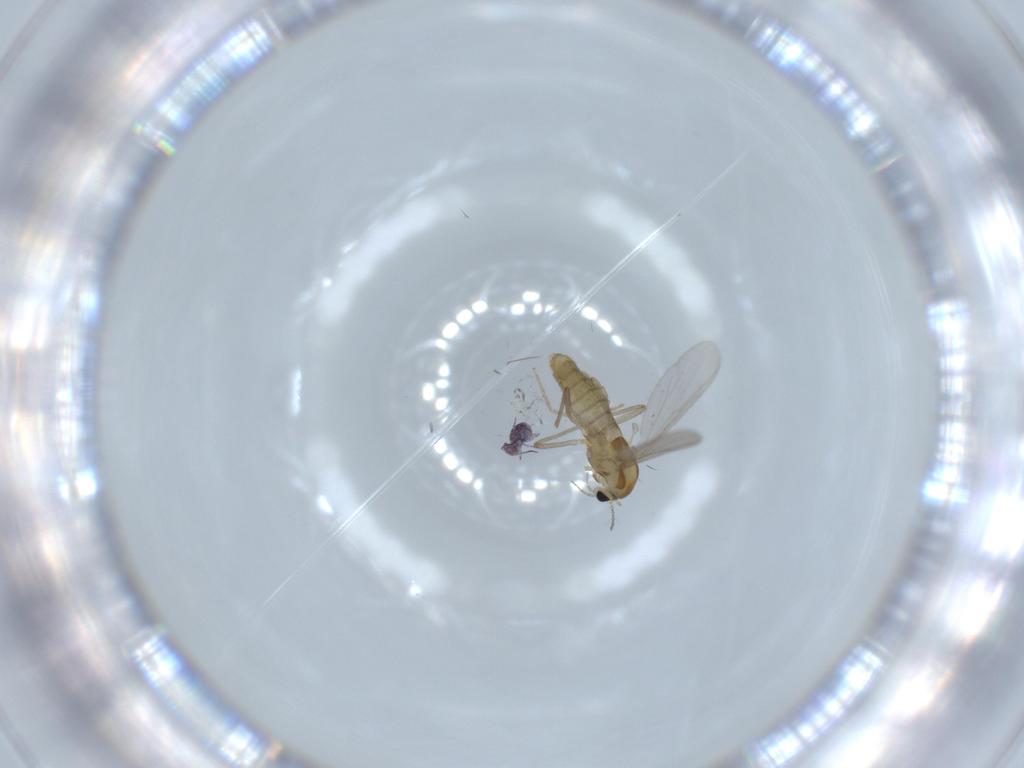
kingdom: Animalia
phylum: Arthropoda
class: Insecta
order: Diptera
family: Chironomidae
